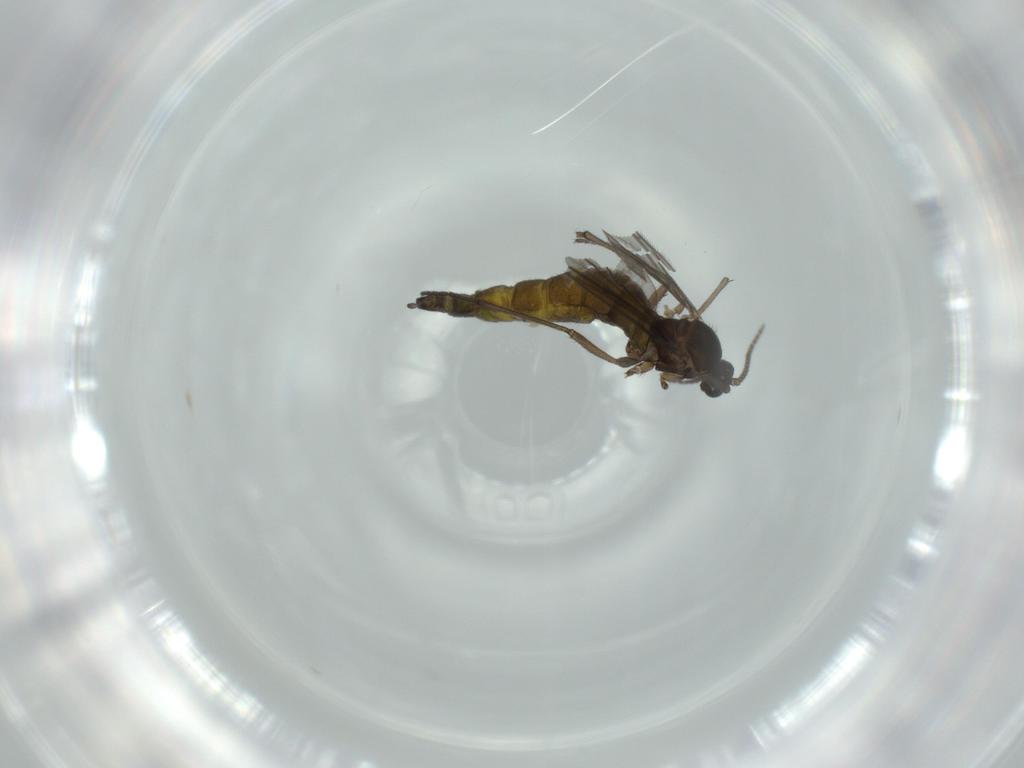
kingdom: Animalia
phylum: Arthropoda
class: Insecta
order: Diptera
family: Sciaridae
